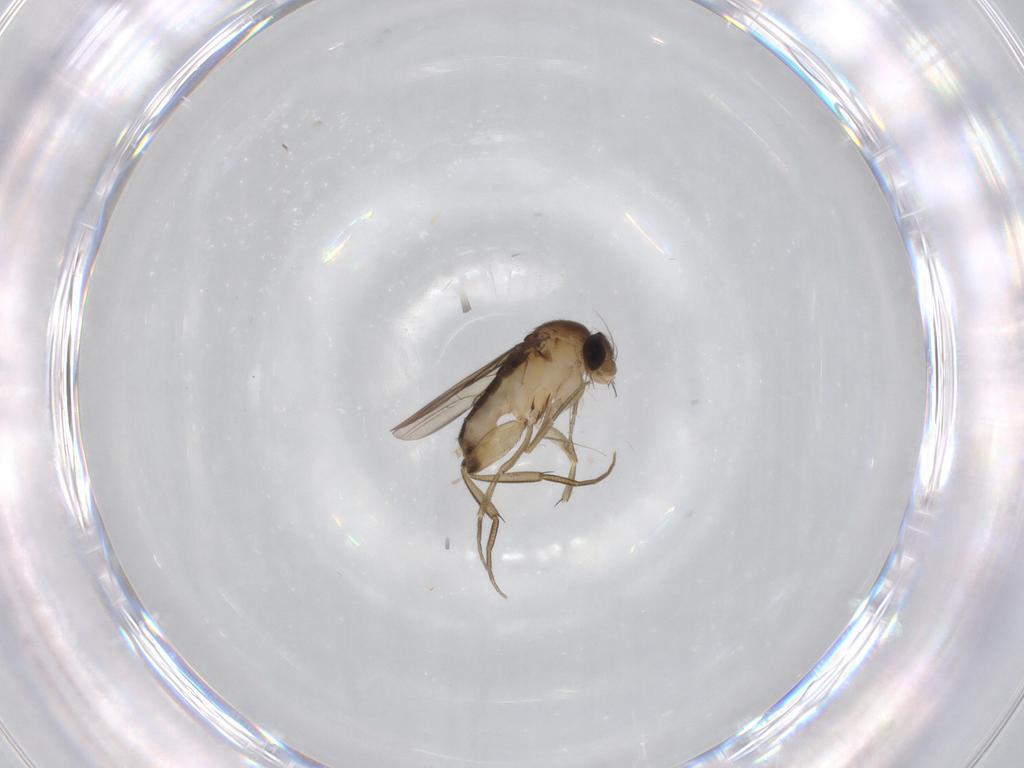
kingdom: Animalia
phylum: Arthropoda
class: Insecta
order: Diptera
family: Phoridae
